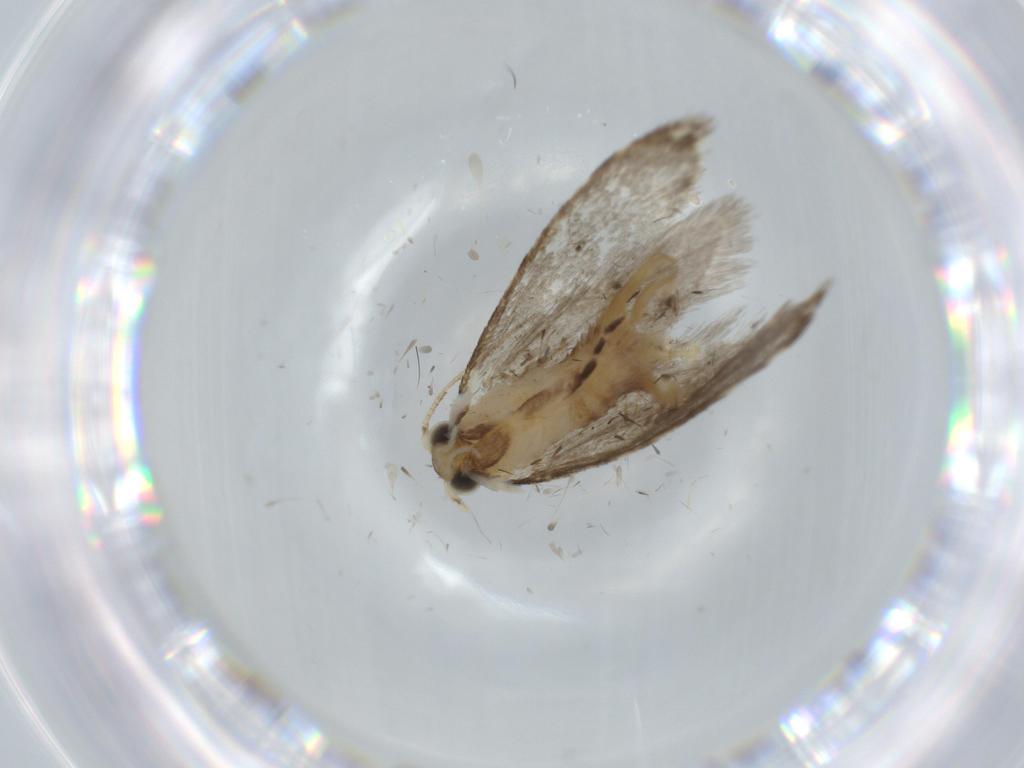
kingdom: Animalia
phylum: Arthropoda
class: Insecta
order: Lepidoptera
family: Tineidae
